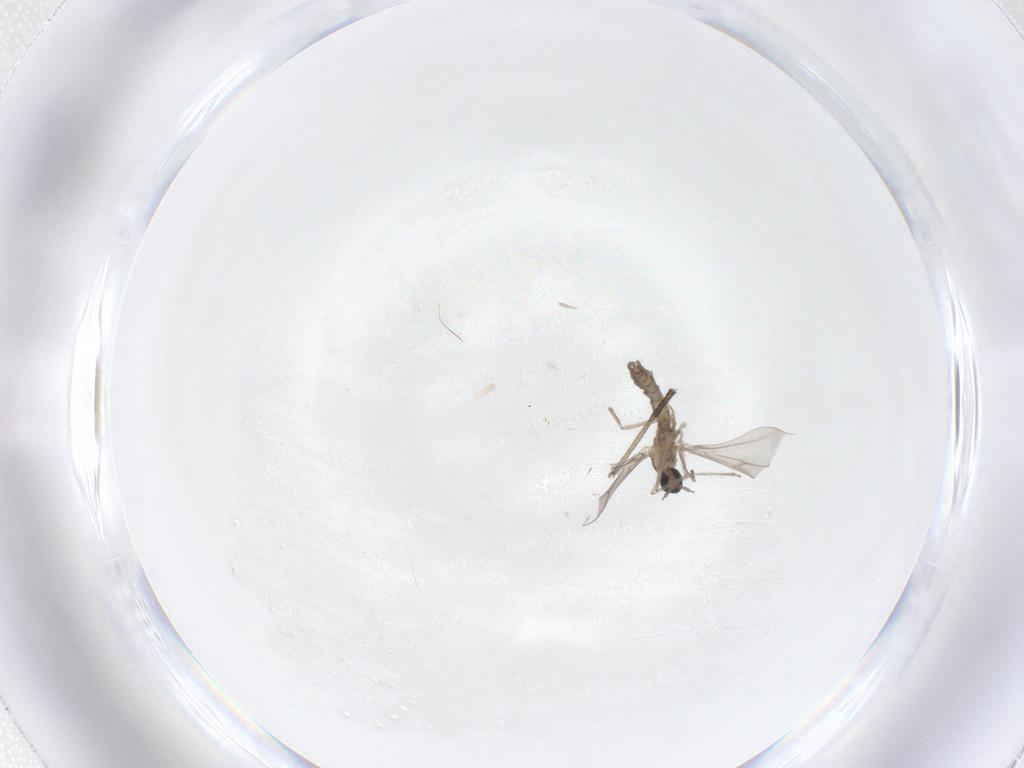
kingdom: Animalia
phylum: Arthropoda
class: Insecta
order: Diptera
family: Cecidomyiidae
